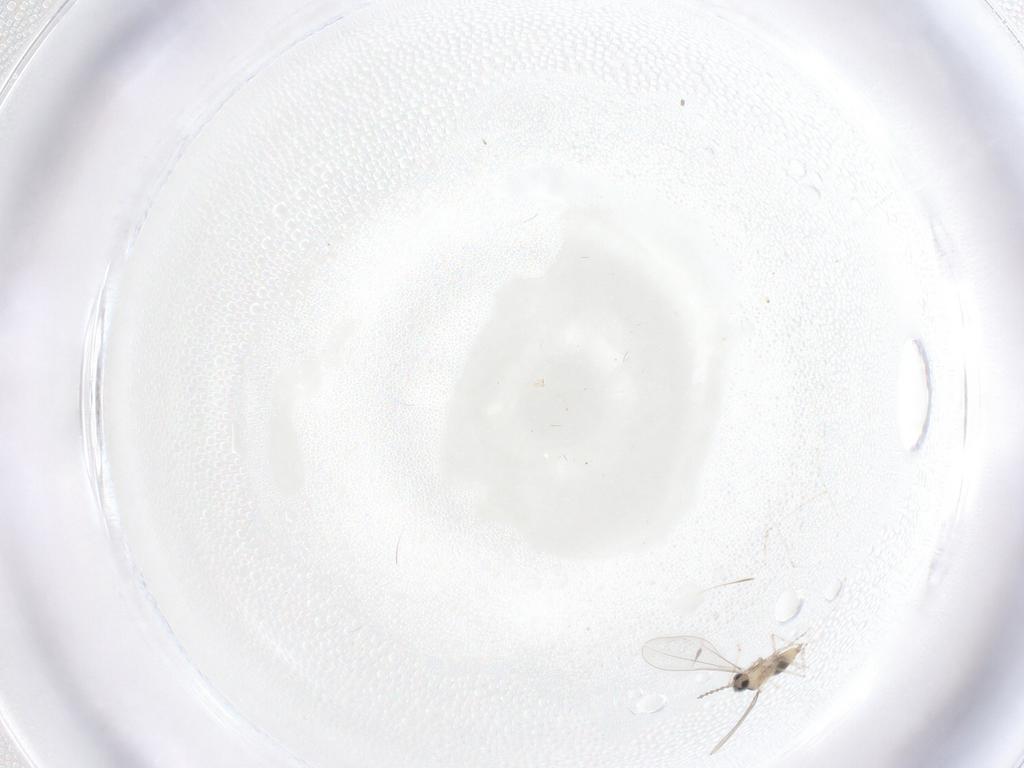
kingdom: Animalia
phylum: Arthropoda
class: Insecta
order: Diptera
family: Cecidomyiidae
